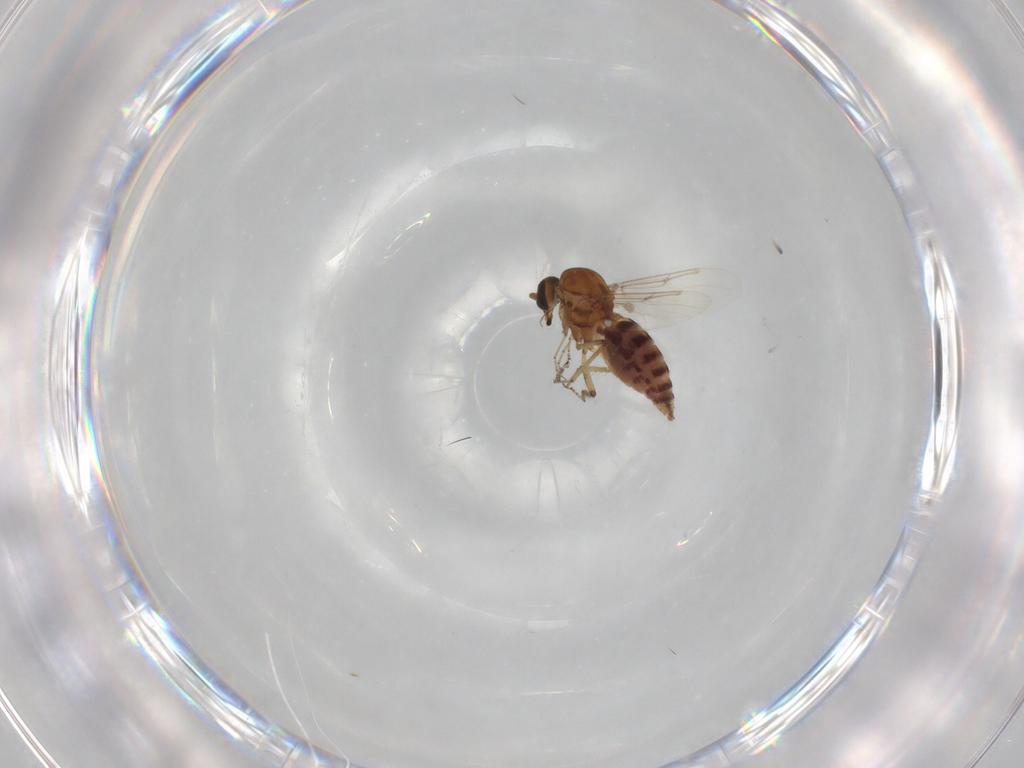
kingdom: Animalia
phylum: Arthropoda
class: Insecta
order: Diptera
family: Ceratopogonidae
